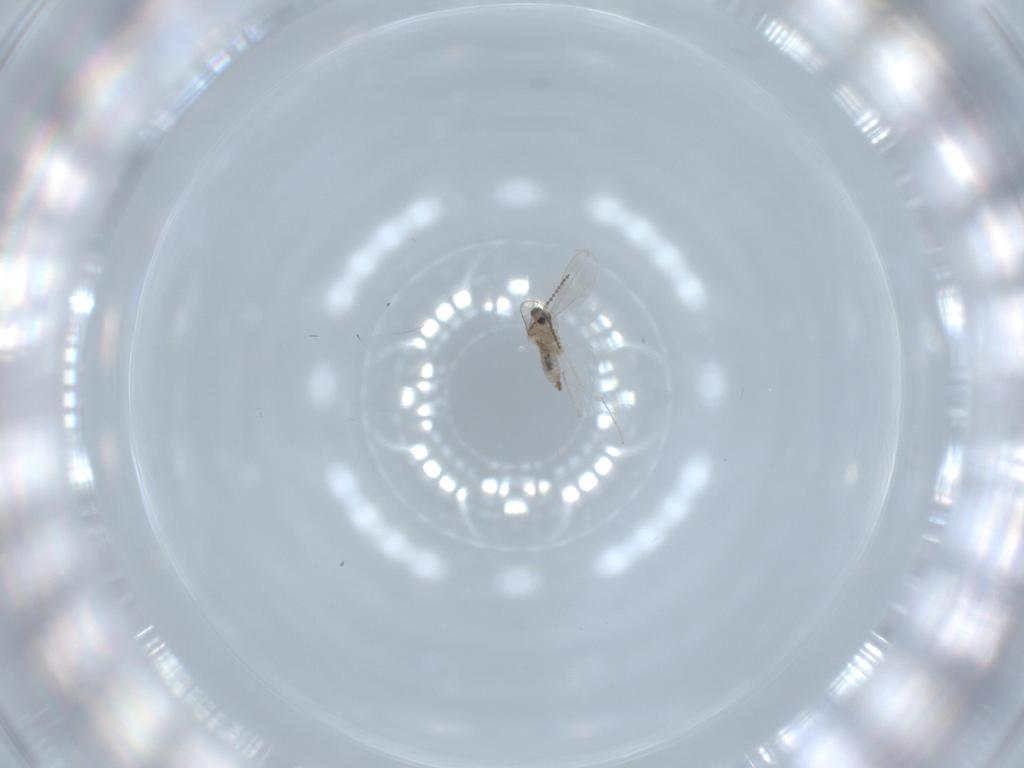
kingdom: Animalia
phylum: Arthropoda
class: Insecta
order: Diptera
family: Cecidomyiidae
